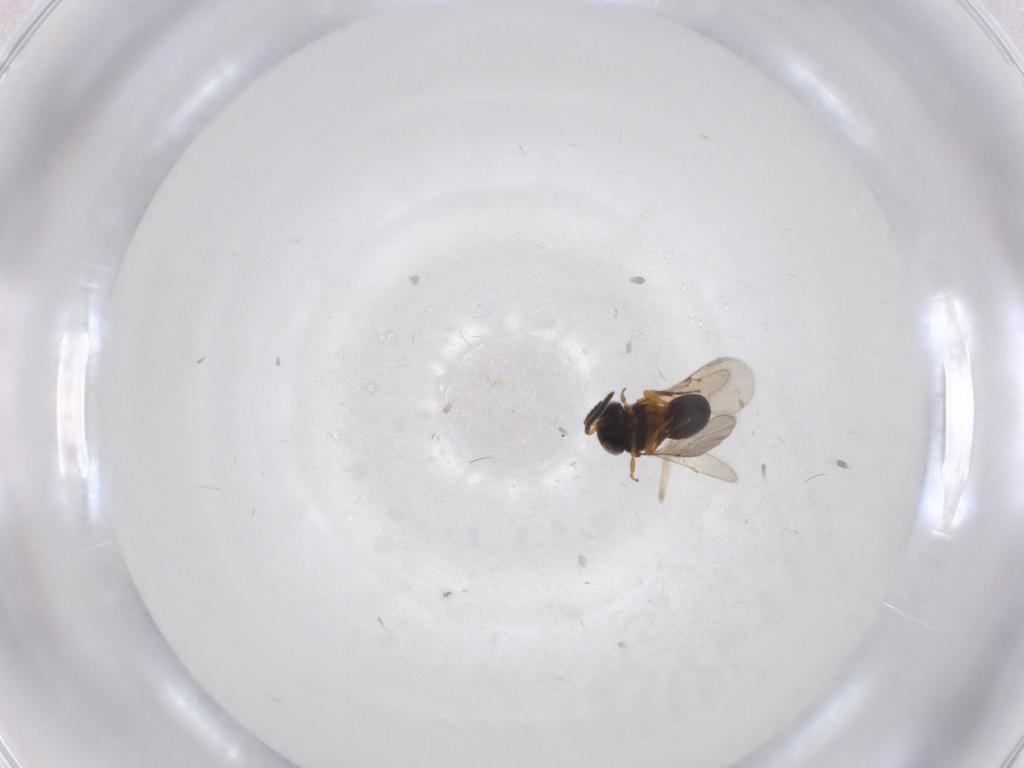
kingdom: Animalia
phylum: Arthropoda
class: Insecta
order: Hymenoptera
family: Scelionidae
